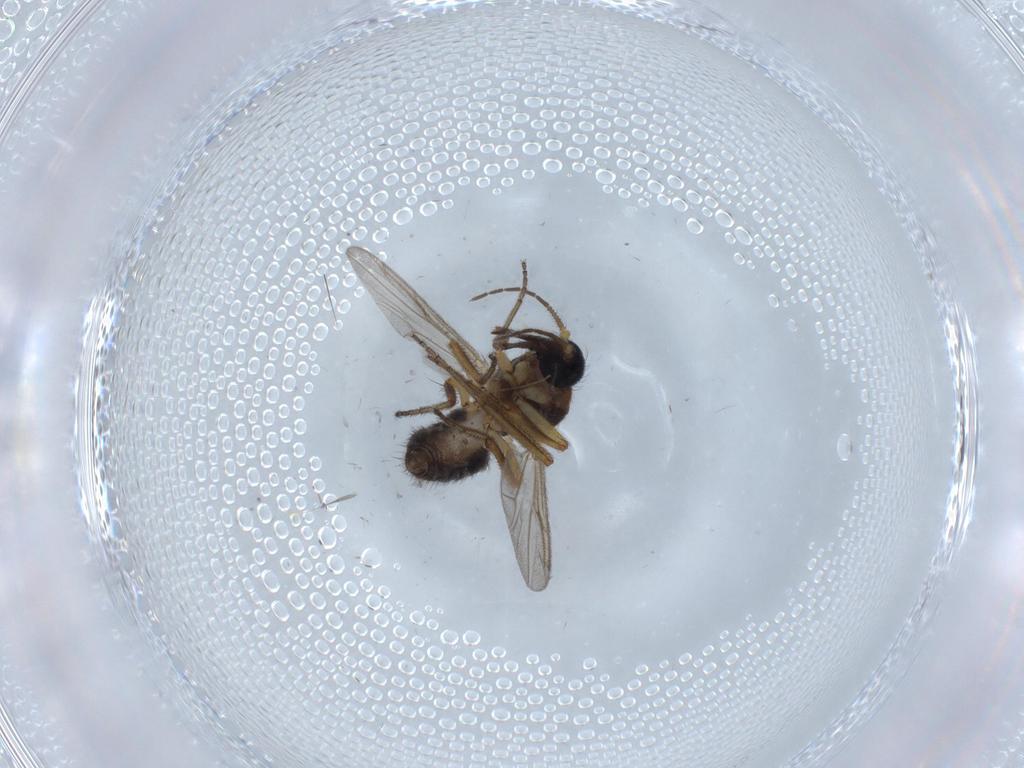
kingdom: Animalia
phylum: Arthropoda
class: Insecta
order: Diptera
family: Ceratopogonidae
